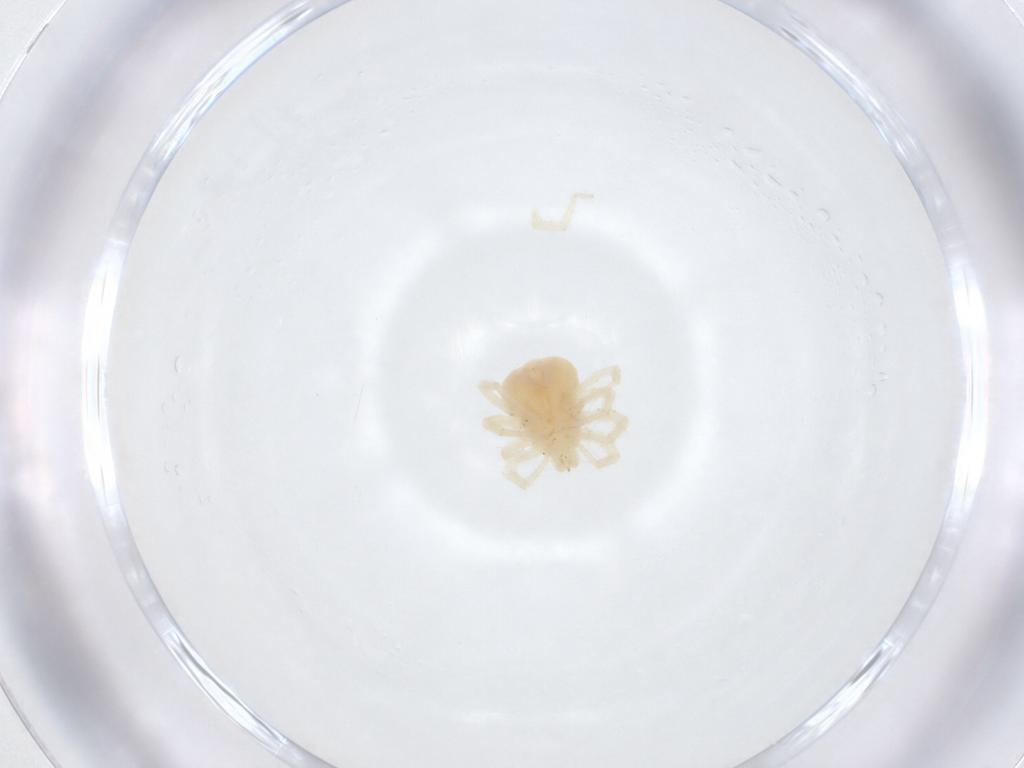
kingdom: Animalia
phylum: Arthropoda
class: Arachnida
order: Trombidiformes
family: Anystidae
